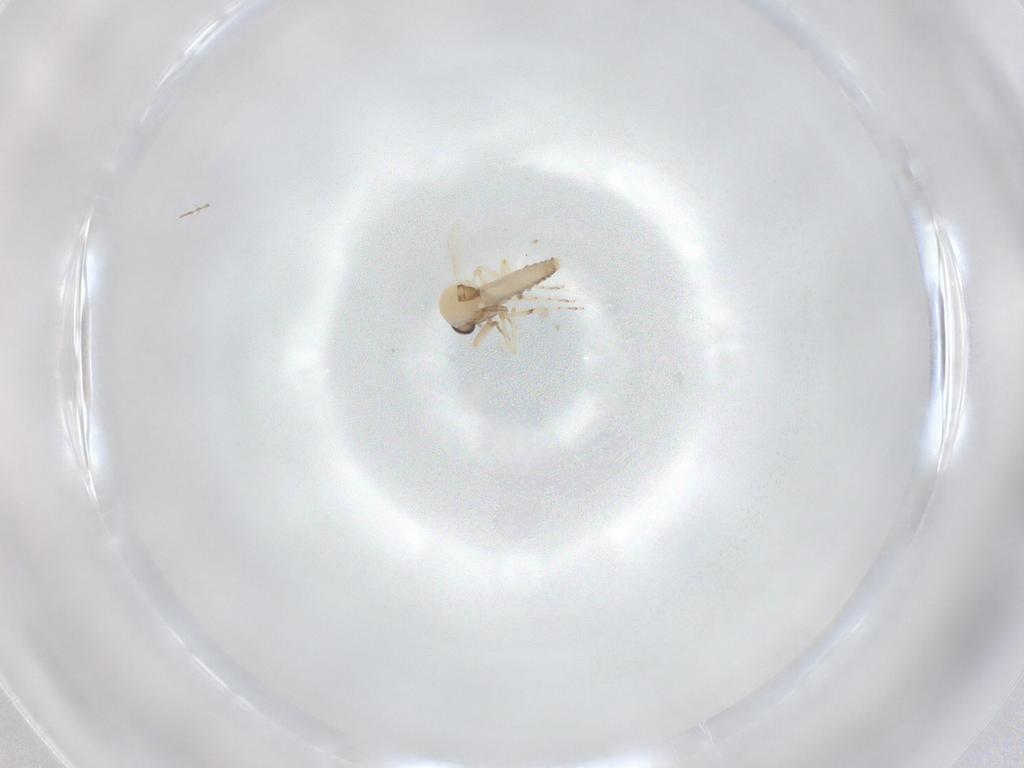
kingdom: Animalia
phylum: Arthropoda
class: Insecta
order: Diptera
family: Ceratopogonidae
